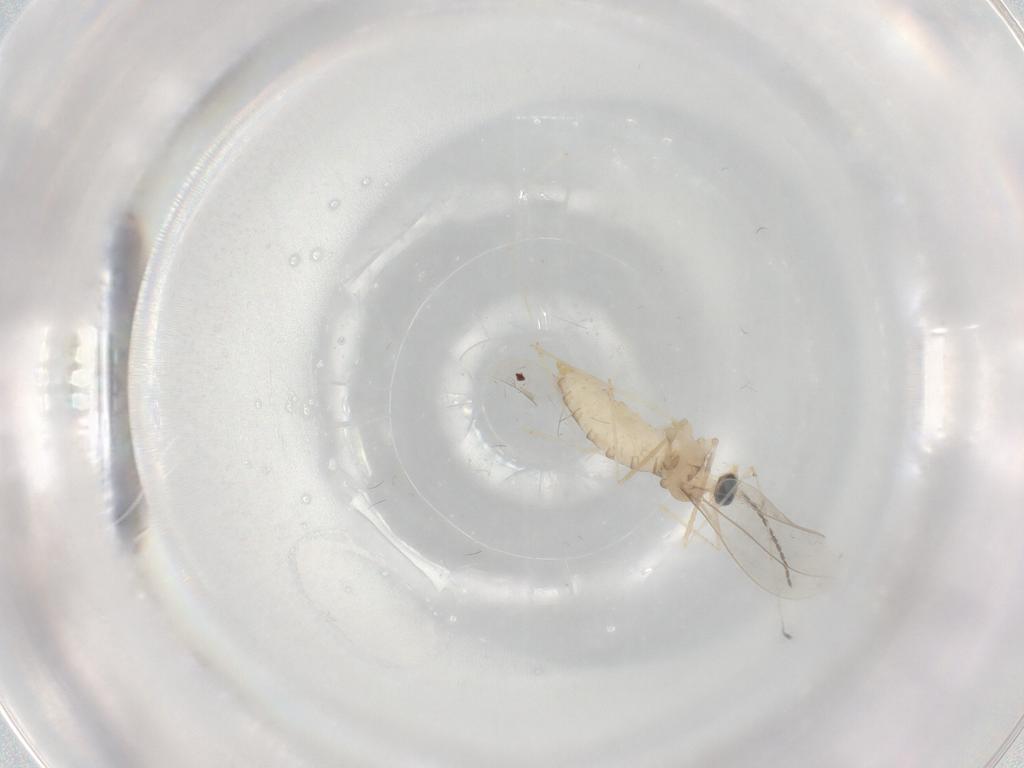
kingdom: Animalia
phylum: Arthropoda
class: Insecta
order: Diptera
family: Cecidomyiidae
